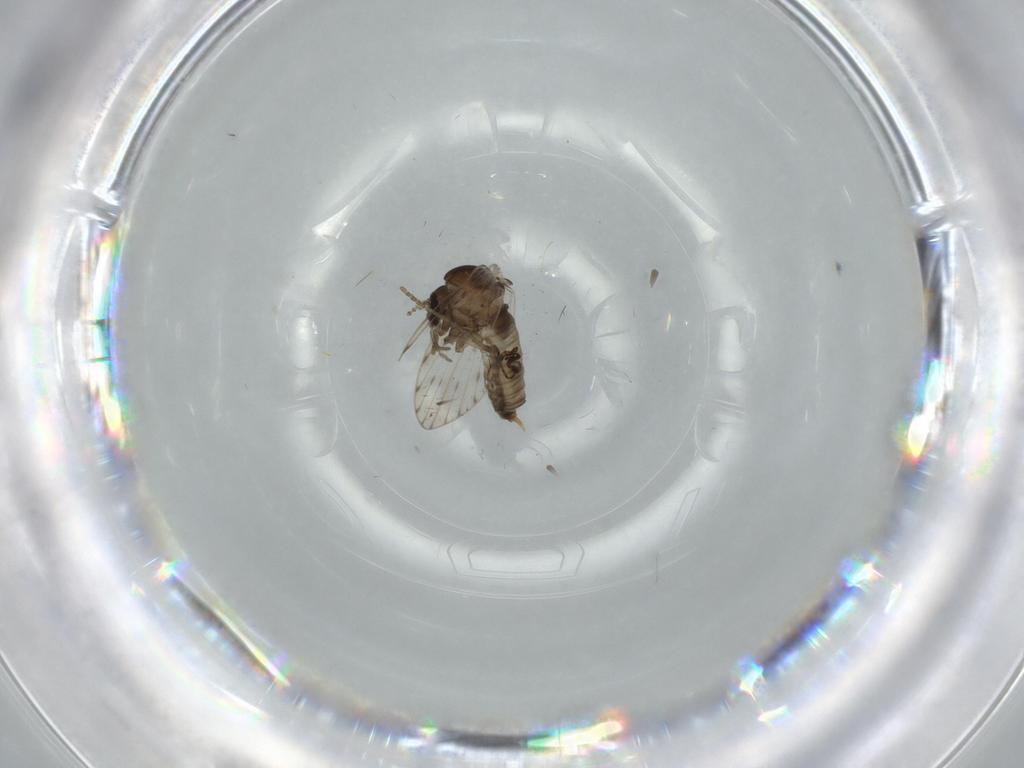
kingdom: Animalia
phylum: Arthropoda
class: Insecta
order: Diptera
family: Psychodidae
